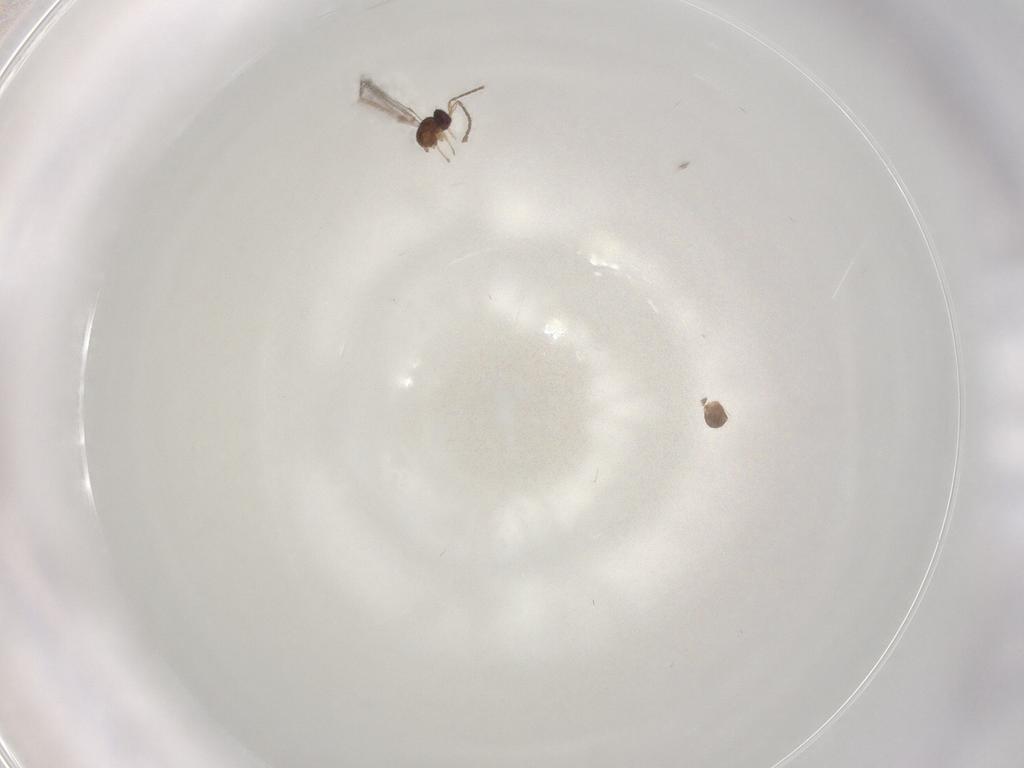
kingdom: Animalia
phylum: Arthropoda
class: Insecta
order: Hymenoptera
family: Mymaridae
